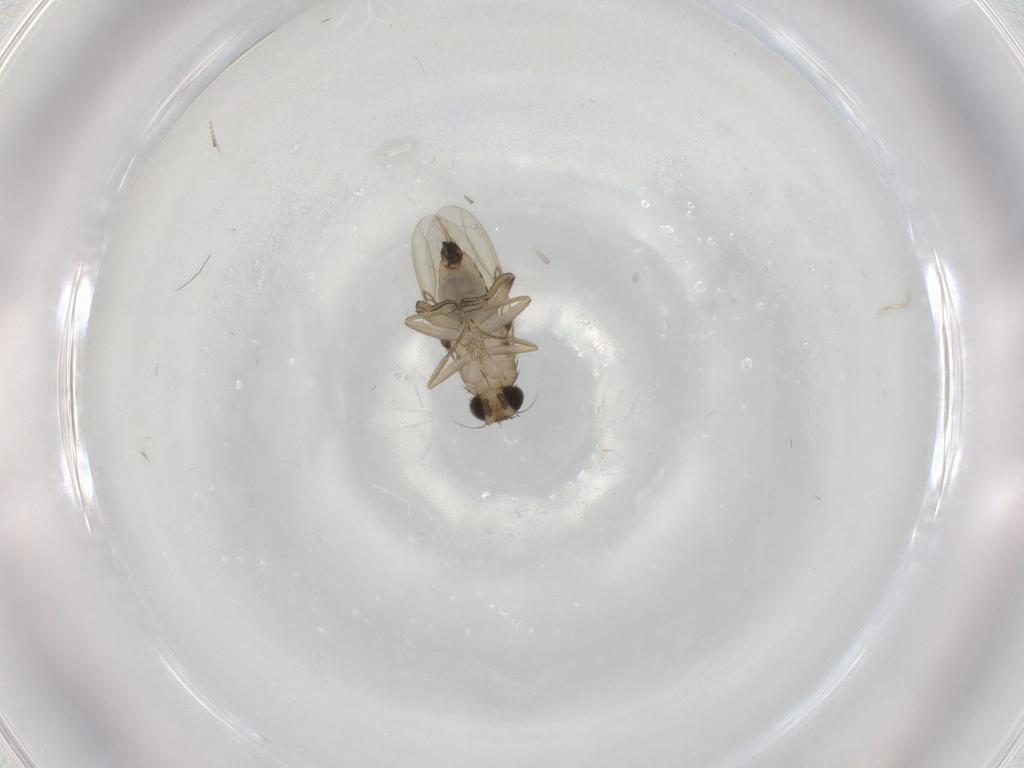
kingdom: Animalia
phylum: Arthropoda
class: Insecta
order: Diptera
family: Phoridae
